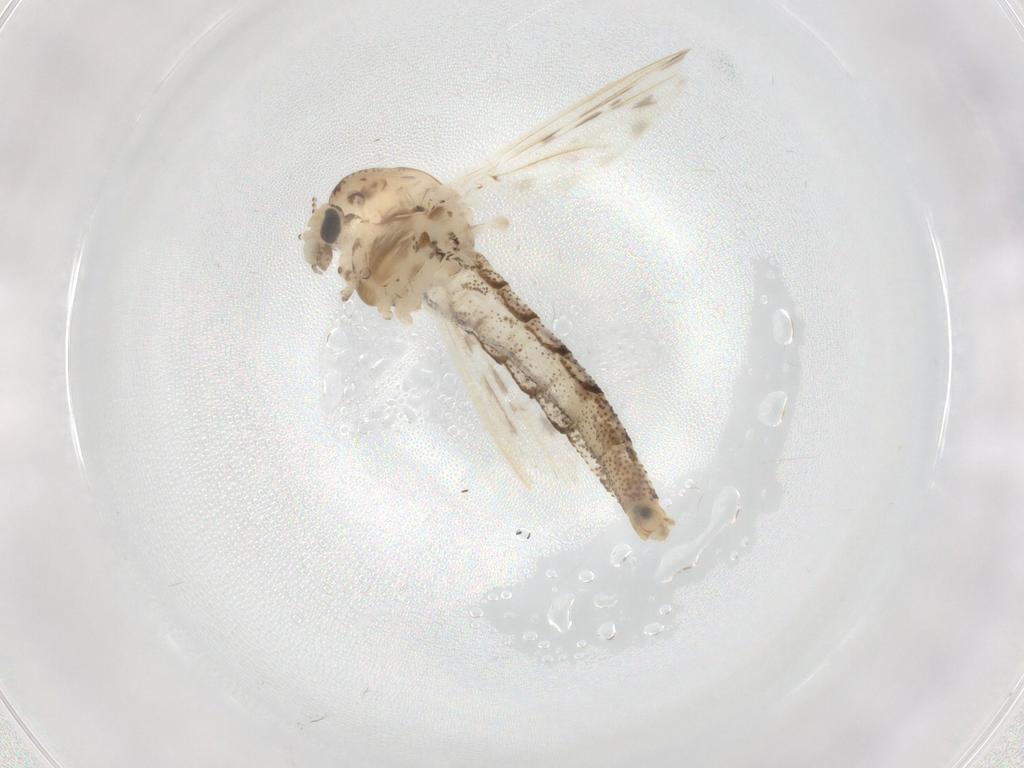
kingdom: Animalia
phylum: Arthropoda
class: Insecta
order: Diptera
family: Chaoboridae
